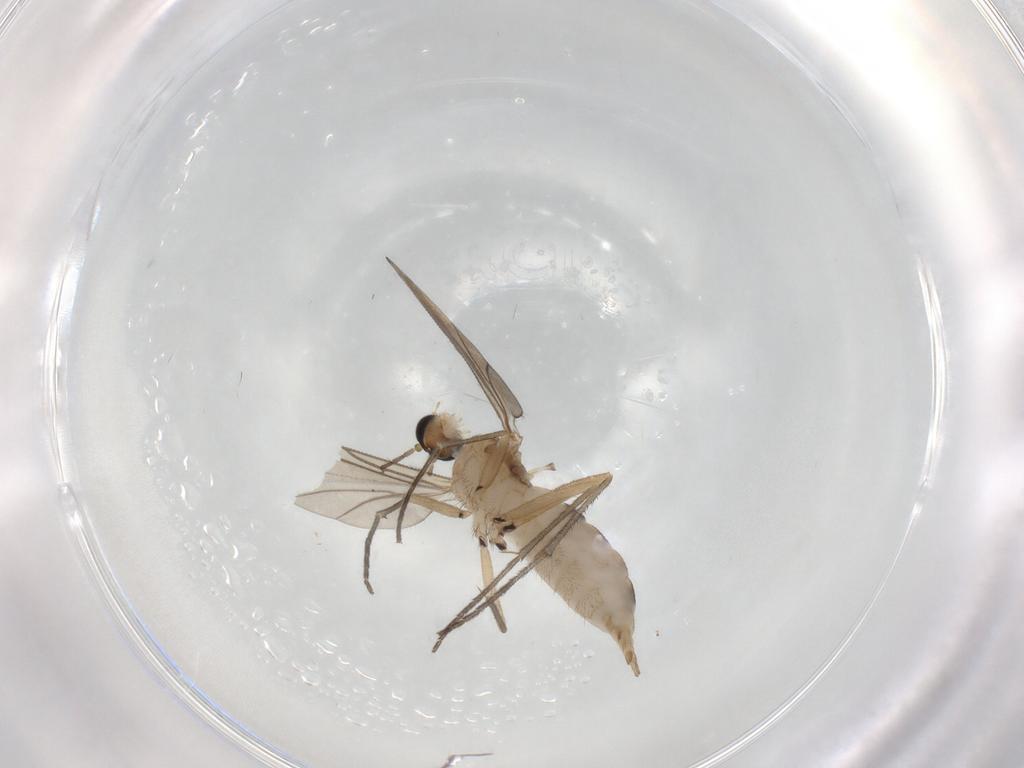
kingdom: Animalia
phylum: Arthropoda
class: Insecta
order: Diptera
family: Sciaridae
